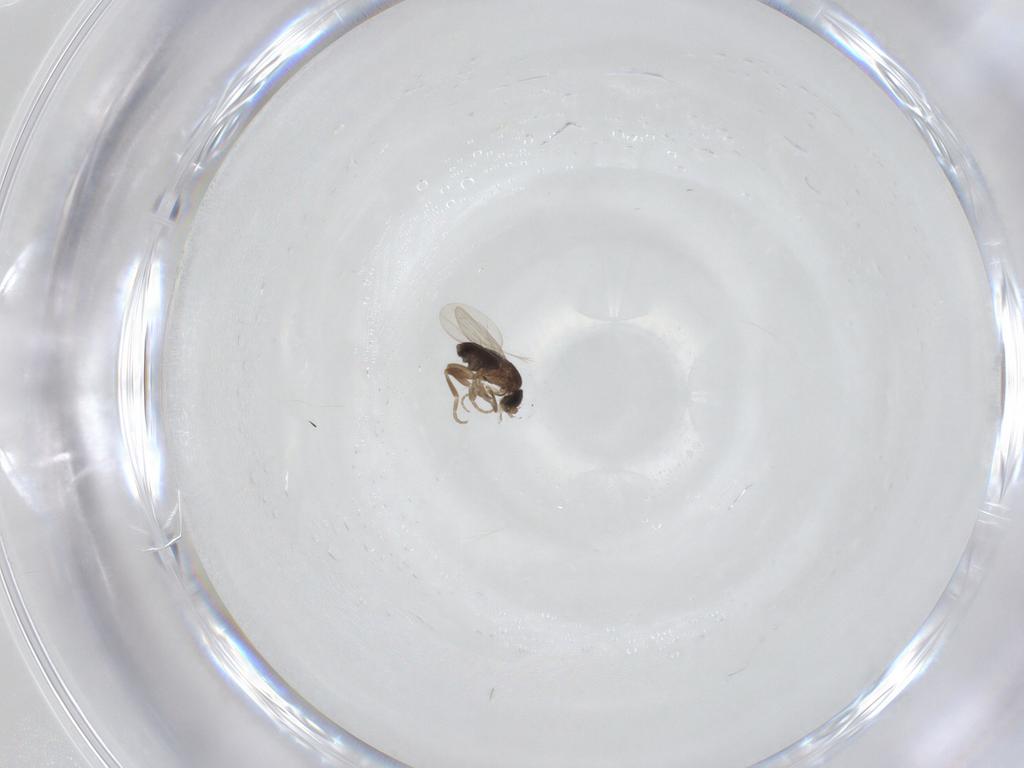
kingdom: Animalia
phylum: Arthropoda
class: Insecta
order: Diptera
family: Phoridae
